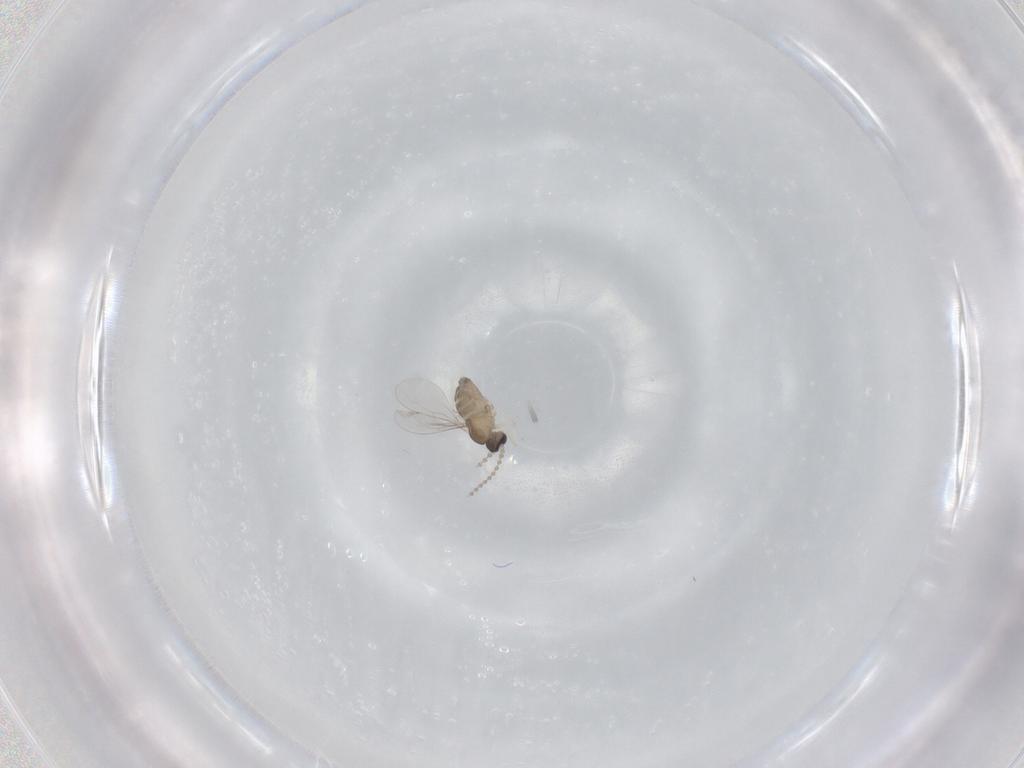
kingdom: Animalia
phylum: Arthropoda
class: Insecta
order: Diptera
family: Cecidomyiidae
